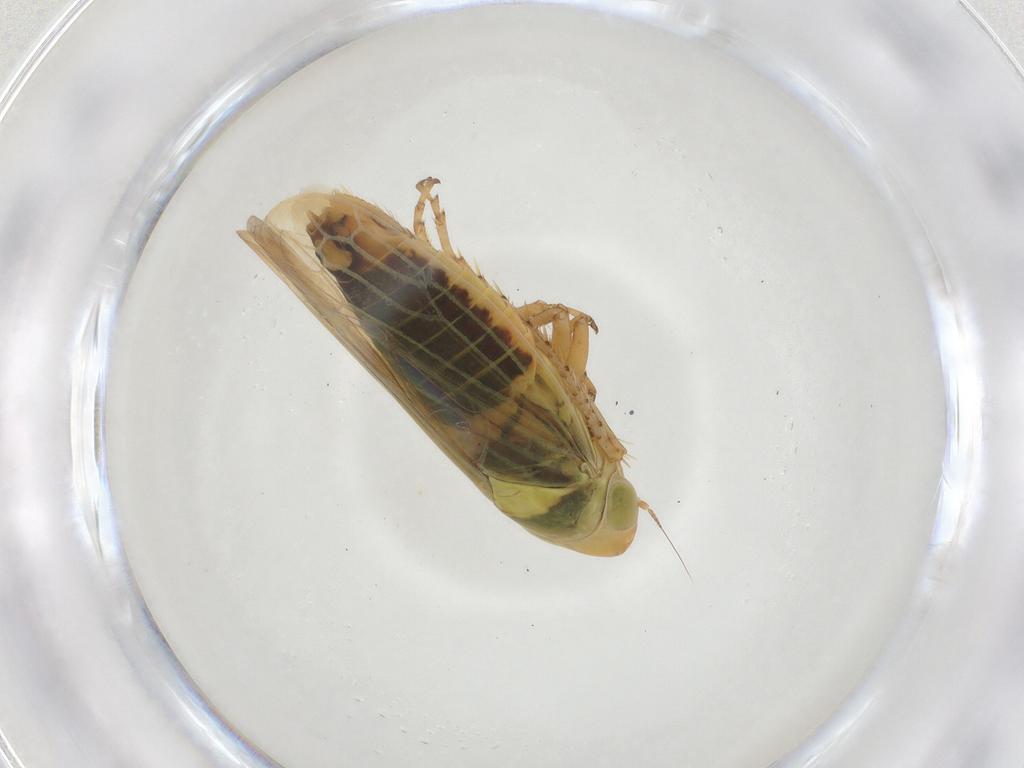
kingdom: Animalia
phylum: Arthropoda
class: Insecta
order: Hemiptera
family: Cicadellidae
